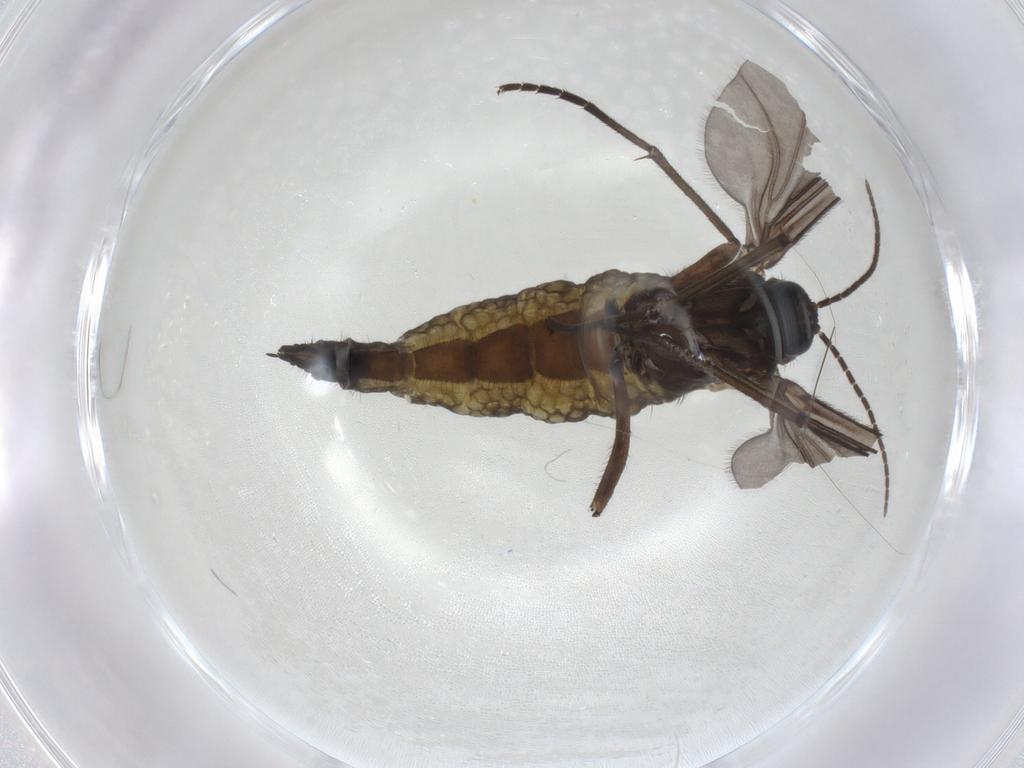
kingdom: Animalia
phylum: Arthropoda
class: Insecta
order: Diptera
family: Sciaridae
